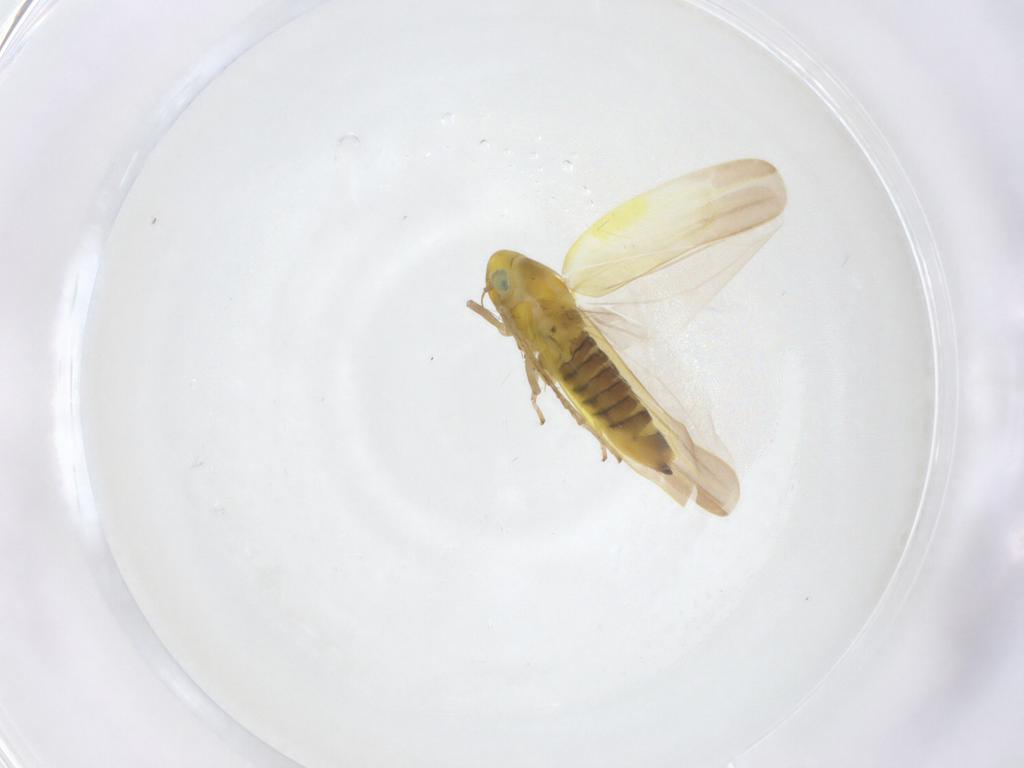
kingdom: Animalia
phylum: Arthropoda
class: Insecta
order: Hemiptera
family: Cicadellidae
